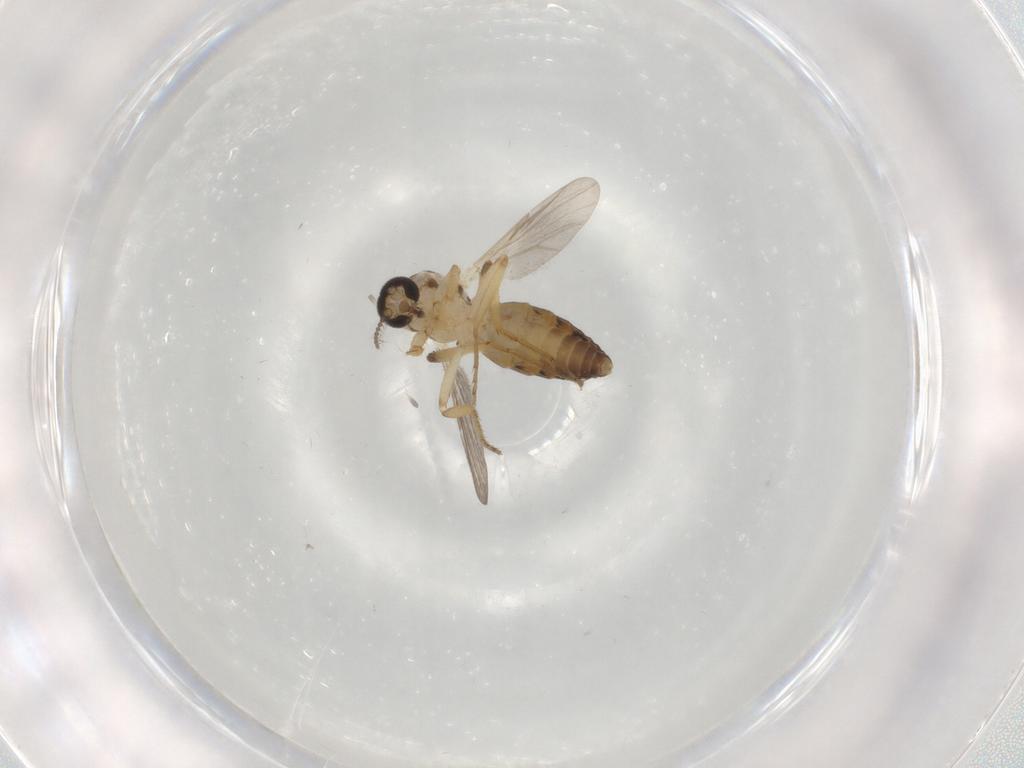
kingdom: Animalia
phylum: Arthropoda
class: Insecta
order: Diptera
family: Ceratopogonidae
